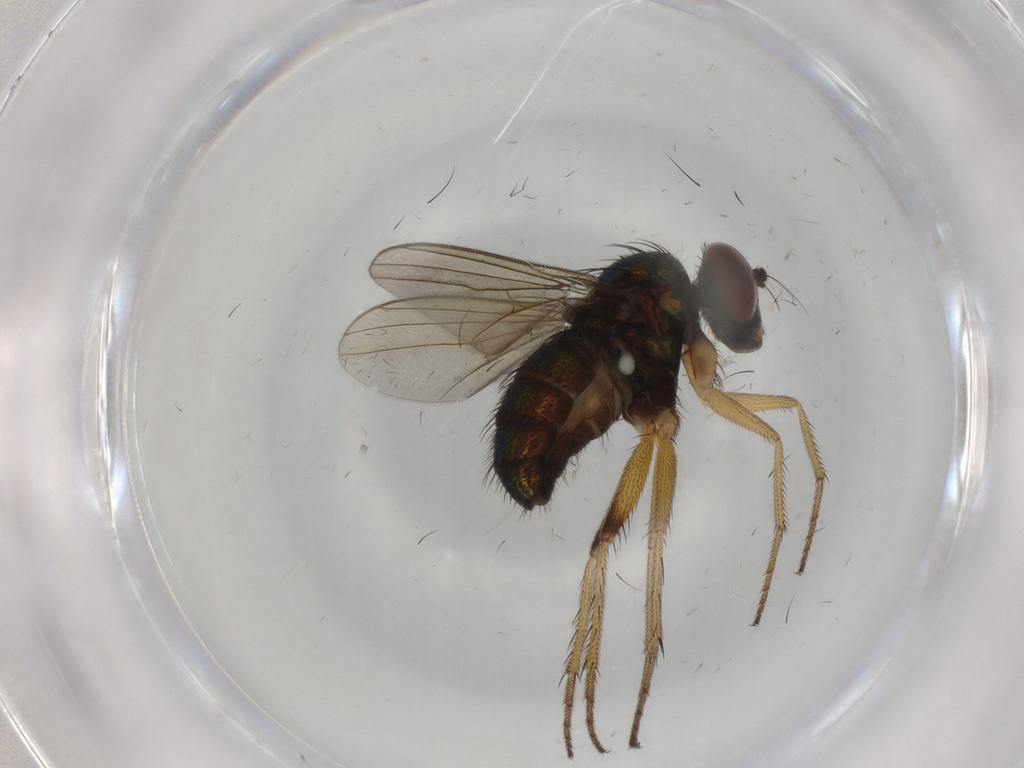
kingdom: Animalia
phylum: Arthropoda
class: Insecta
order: Diptera
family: Dolichopodidae
